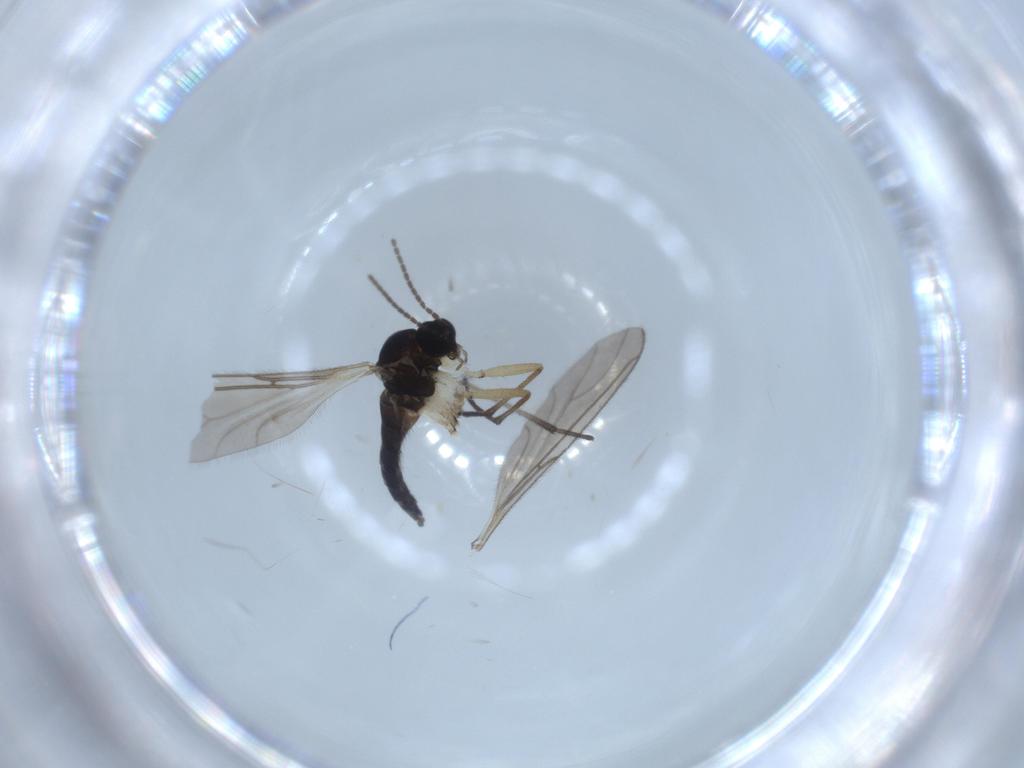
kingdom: Animalia
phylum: Arthropoda
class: Insecta
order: Diptera
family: Sciaridae
